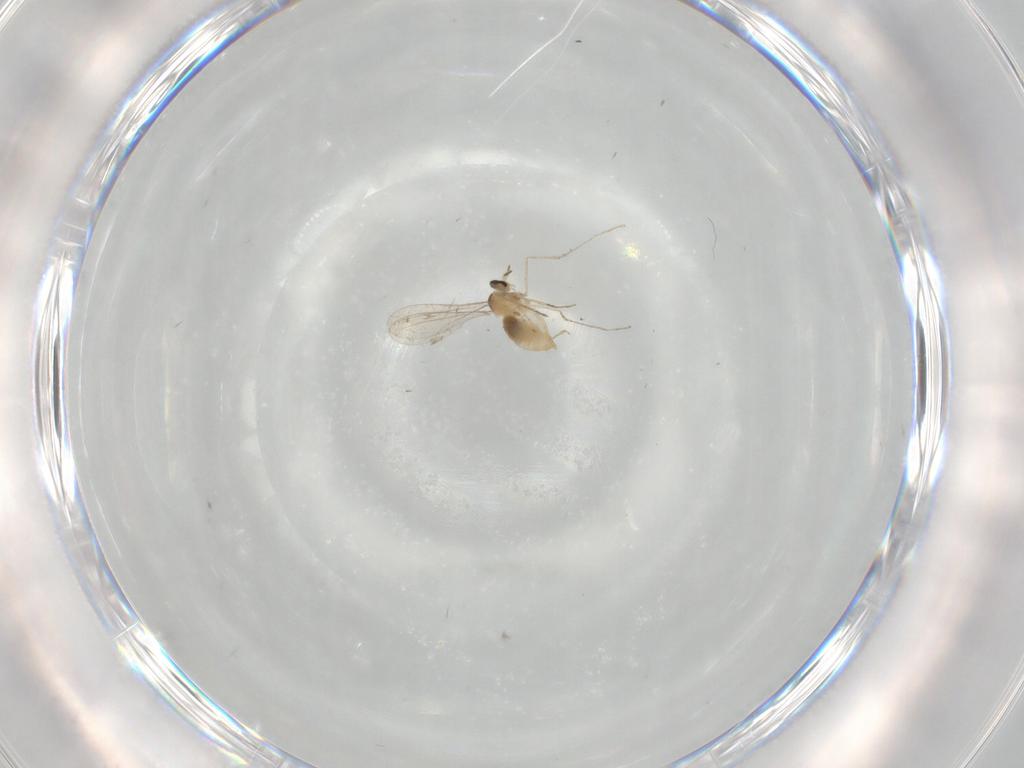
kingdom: Animalia
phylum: Arthropoda
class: Insecta
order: Diptera
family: Cecidomyiidae
